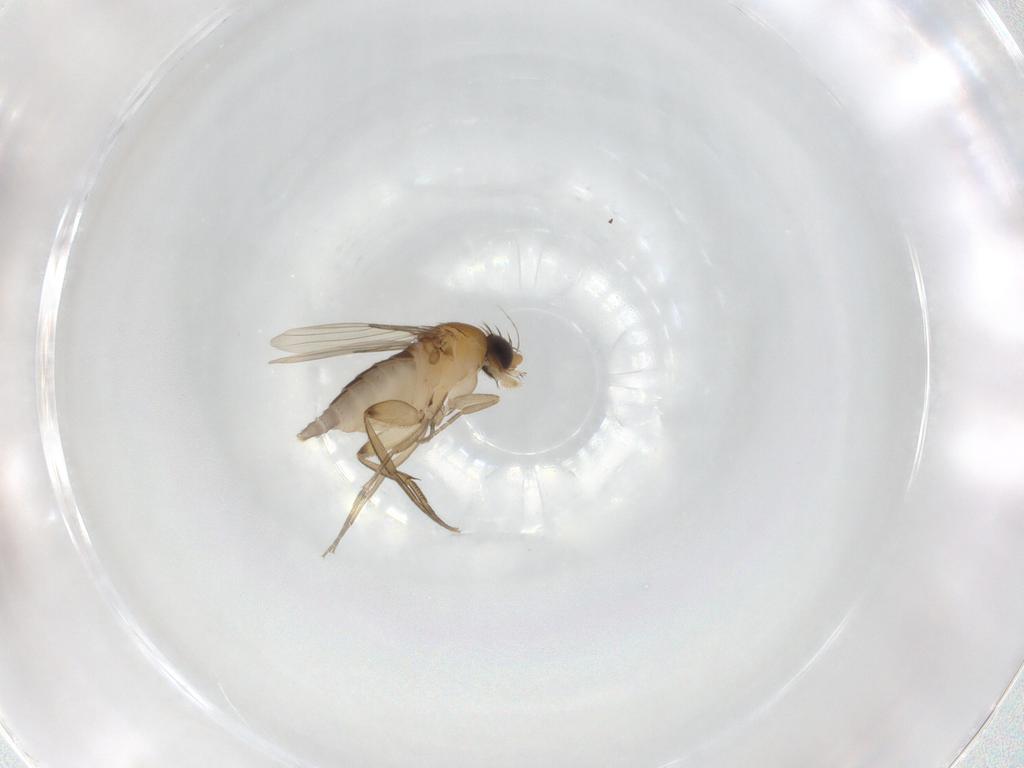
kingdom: Animalia
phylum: Arthropoda
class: Insecta
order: Diptera
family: Phoridae
